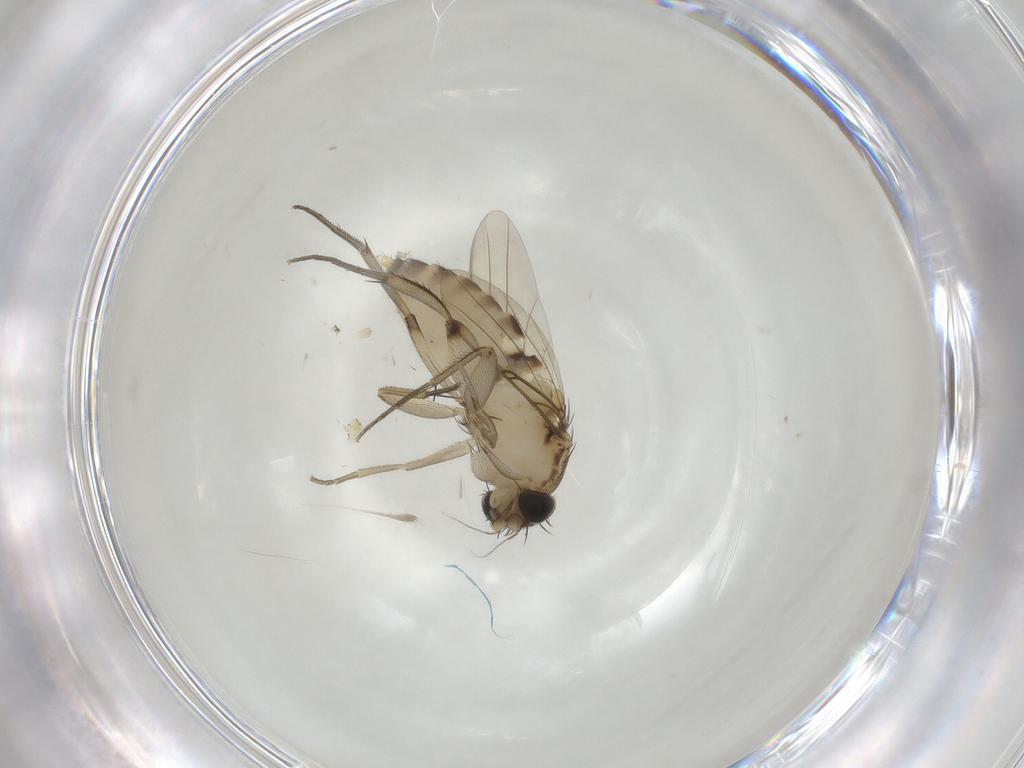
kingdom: Animalia
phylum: Arthropoda
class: Insecta
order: Diptera
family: Phoridae
